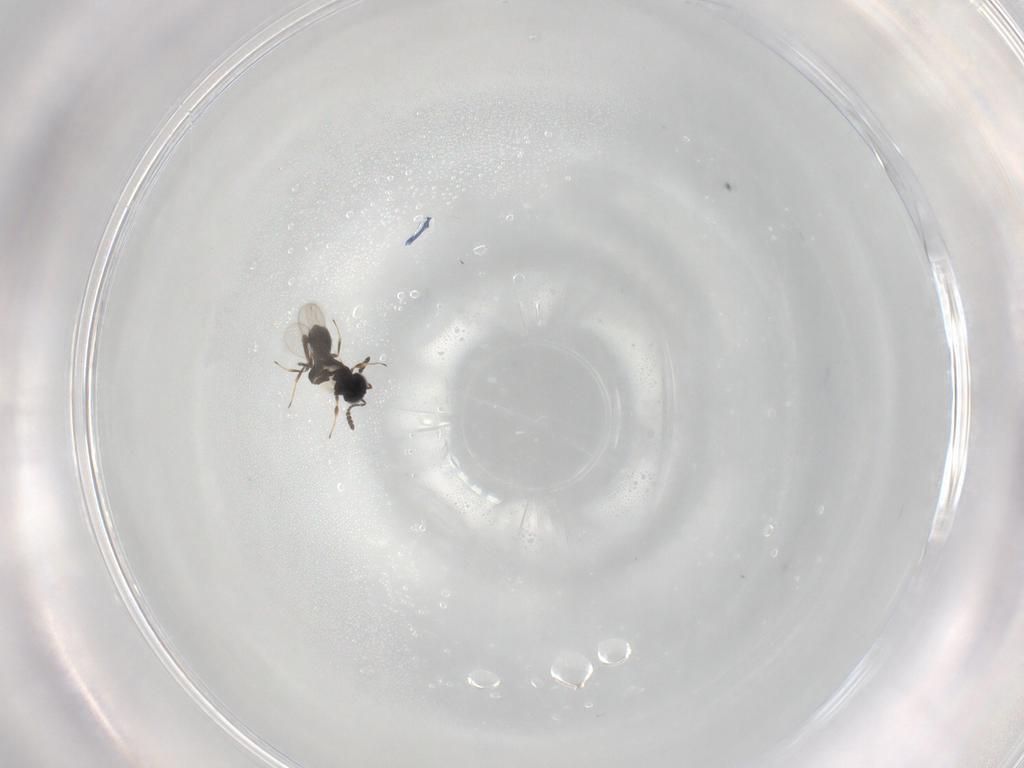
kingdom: Animalia
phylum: Arthropoda
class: Insecta
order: Hymenoptera
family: Scelionidae
